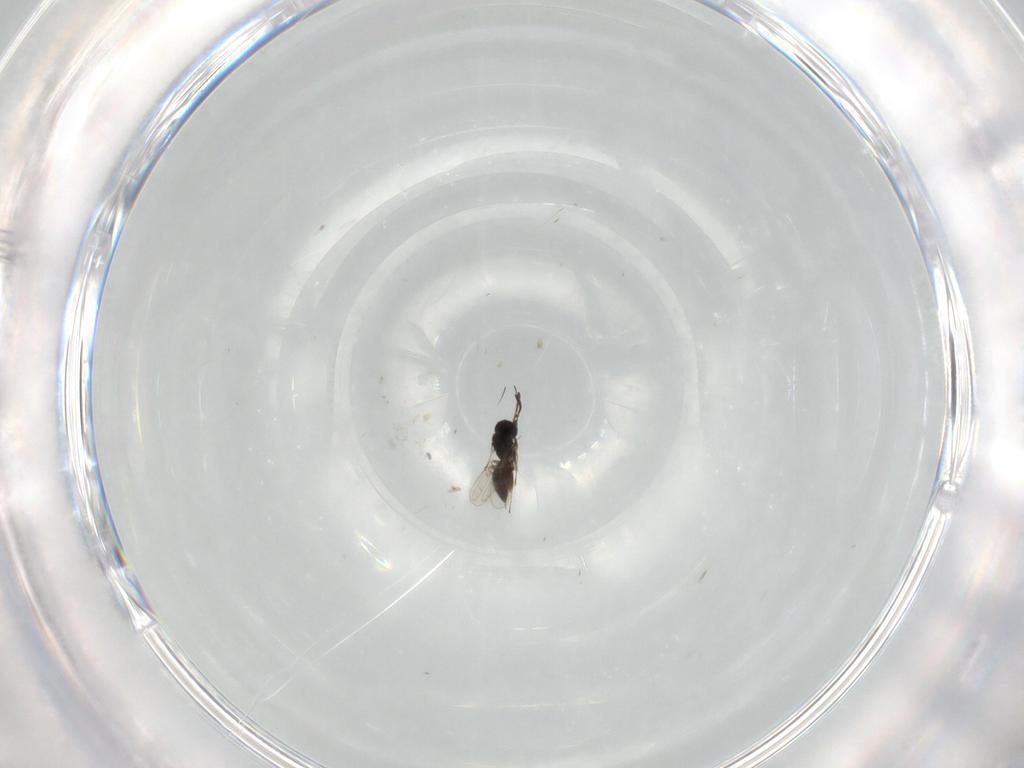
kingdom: Animalia
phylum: Arthropoda
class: Insecta
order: Hymenoptera
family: Scelionidae
